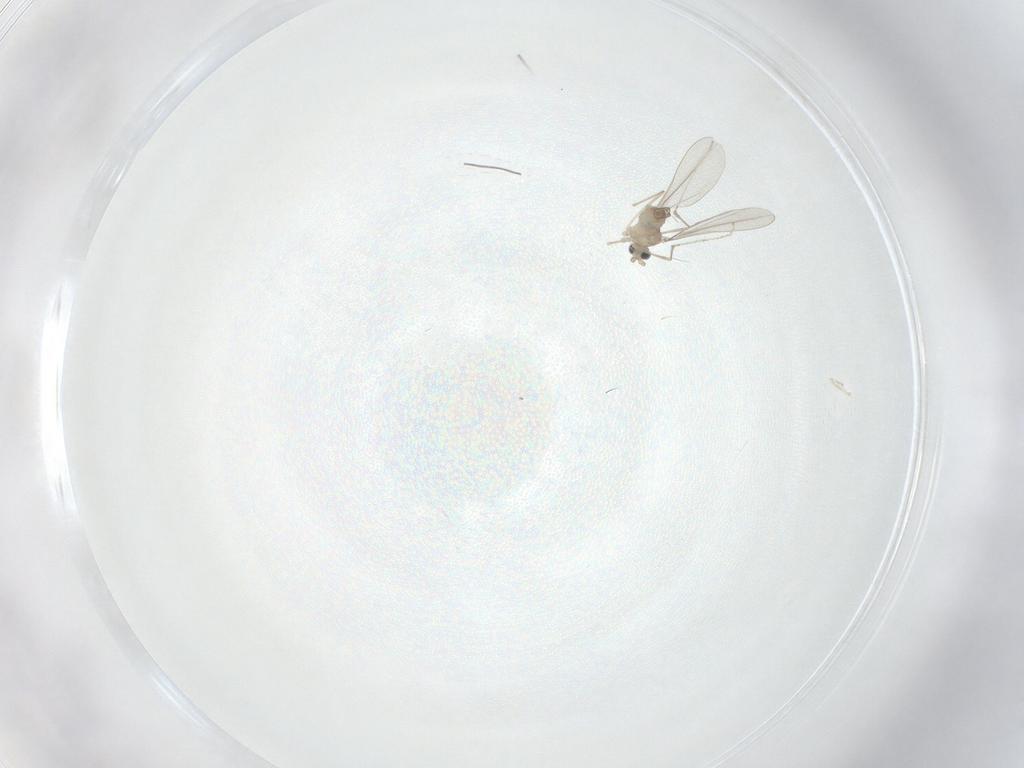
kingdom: Animalia
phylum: Arthropoda
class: Insecta
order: Diptera
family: Cecidomyiidae
